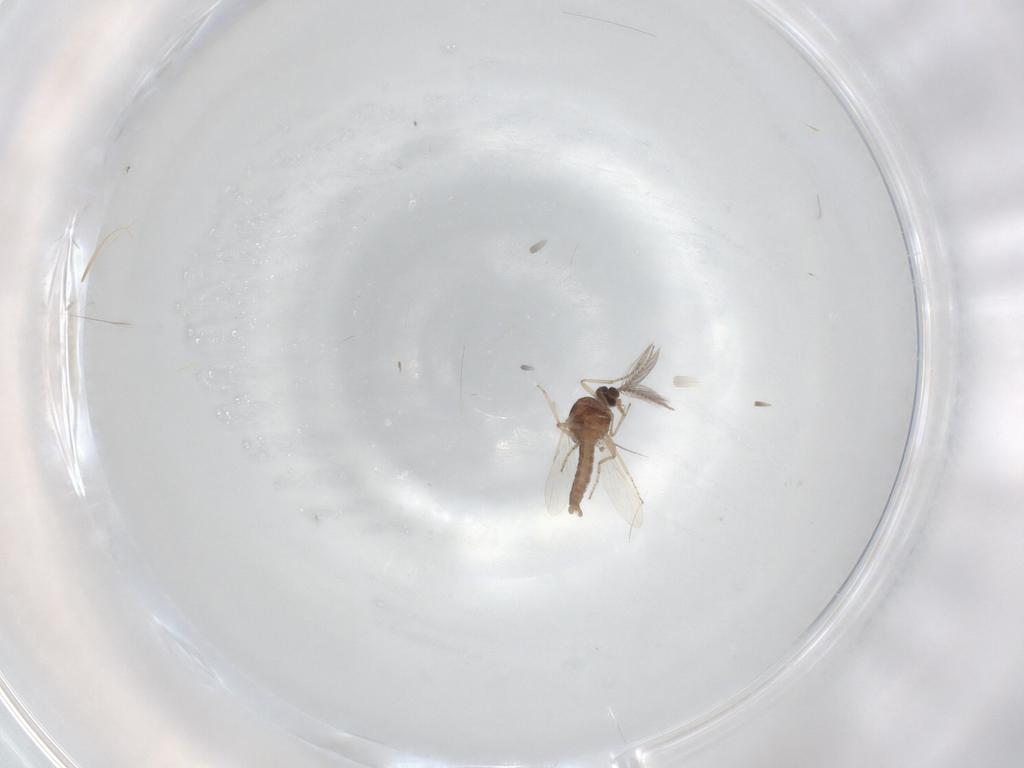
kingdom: Animalia
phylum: Arthropoda
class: Insecta
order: Diptera
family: Ceratopogonidae
